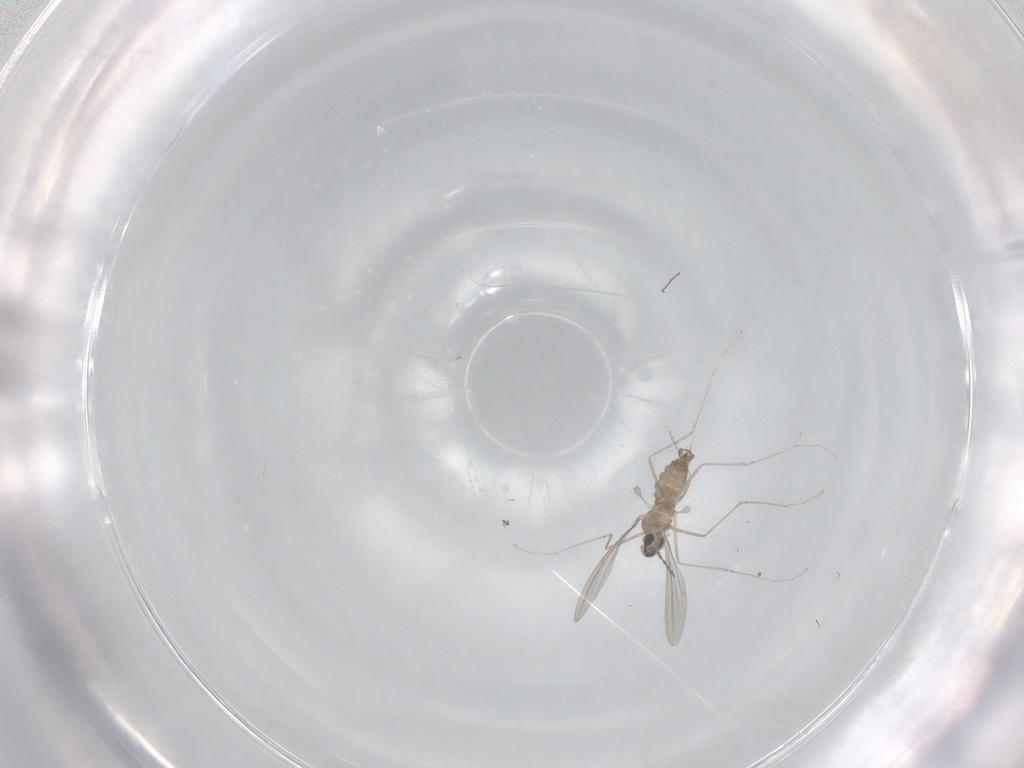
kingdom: Animalia
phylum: Arthropoda
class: Insecta
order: Diptera
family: Cecidomyiidae
